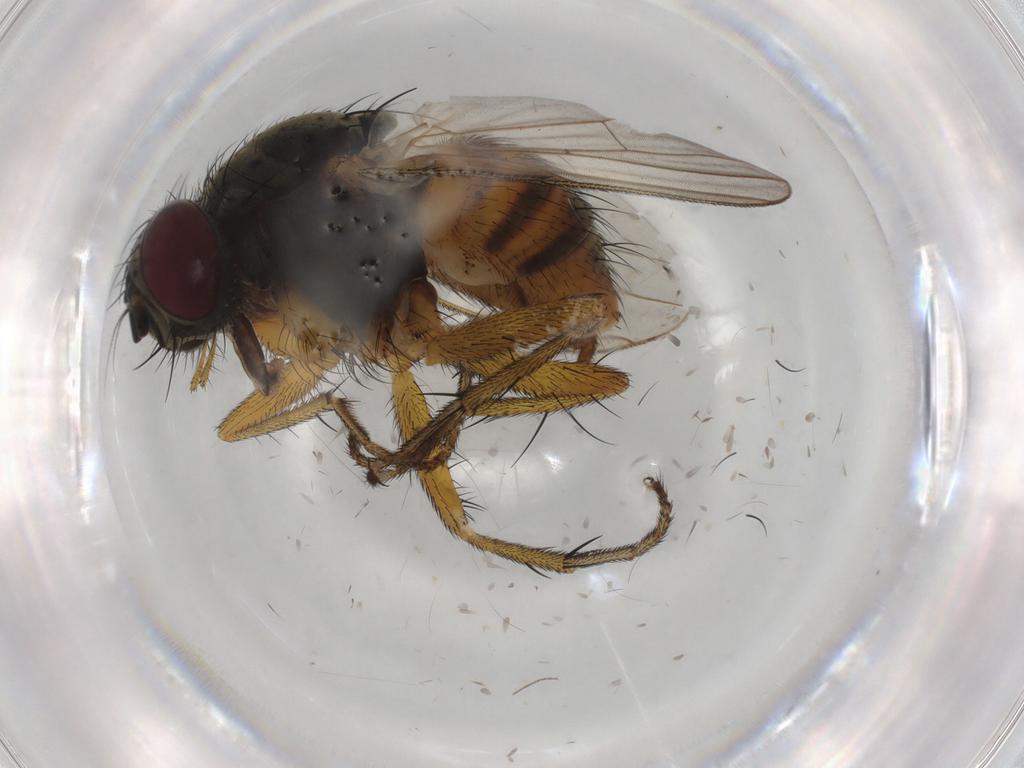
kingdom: Animalia
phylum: Arthropoda
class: Insecta
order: Diptera
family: Muscidae
